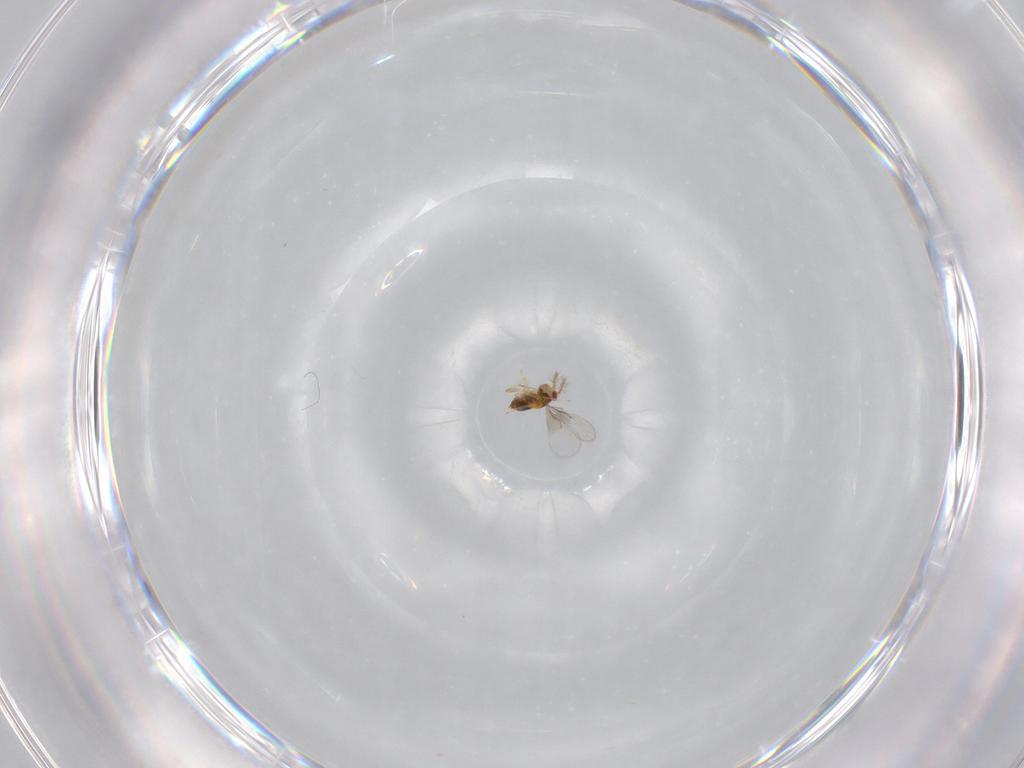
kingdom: Animalia
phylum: Arthropoda
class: Insecta
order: Hymenoptera
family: Trichogrammatidae
